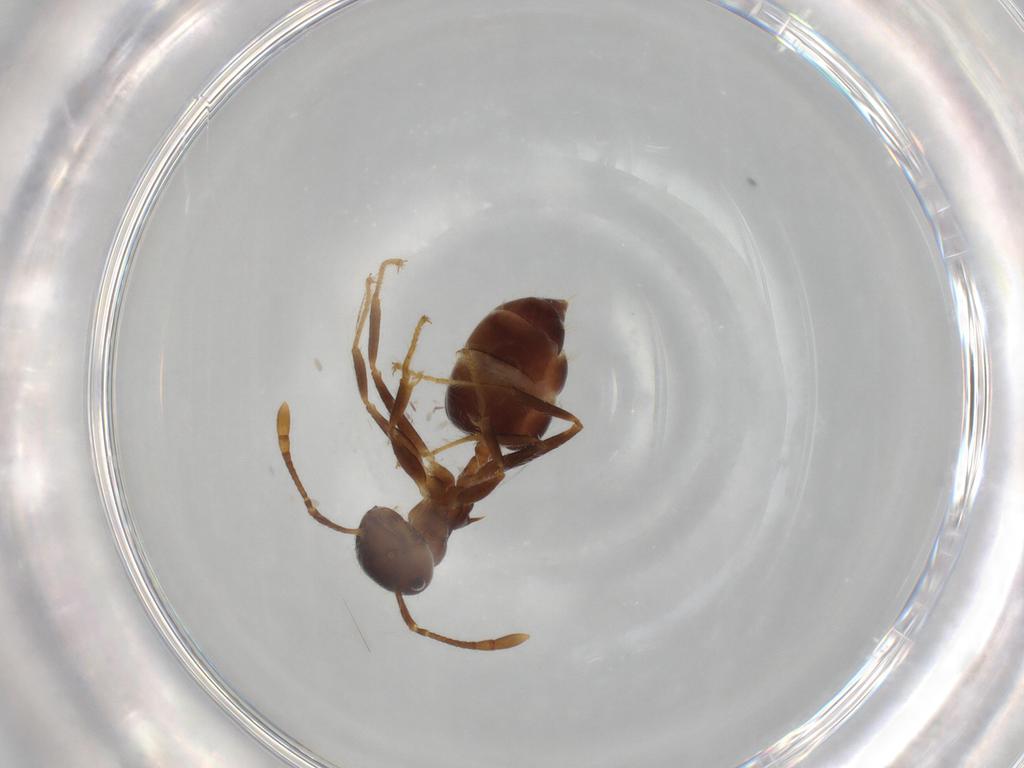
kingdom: Animalia
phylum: Arthropoda
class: Insecta
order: Hymenoptera
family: Formicidae
